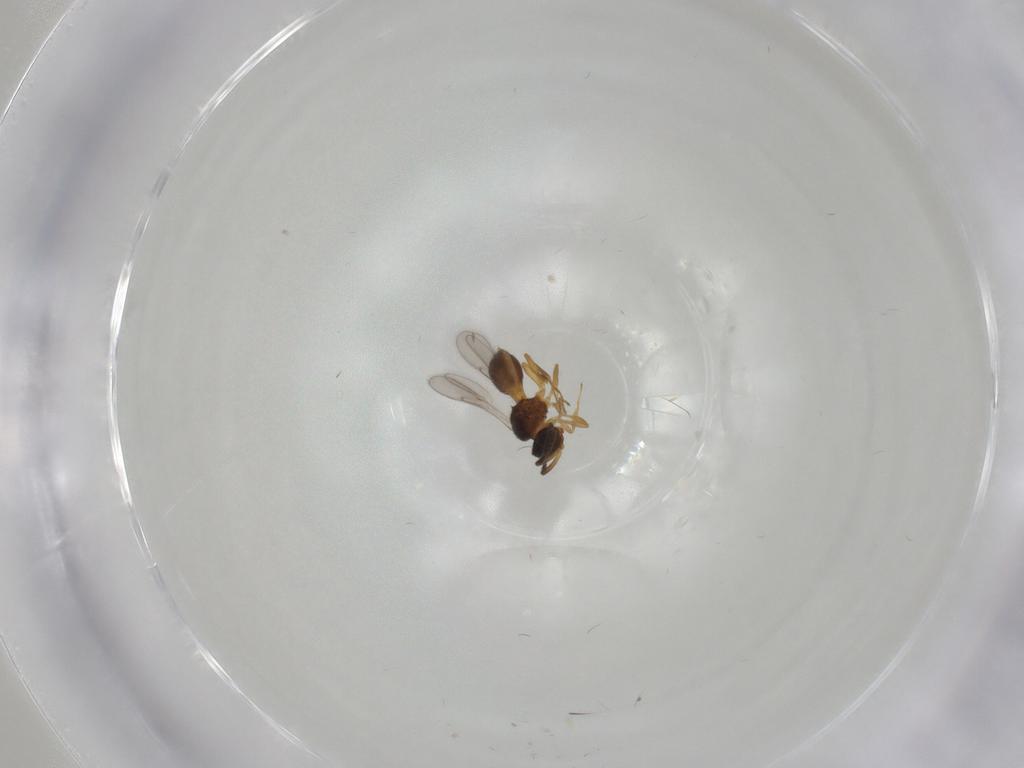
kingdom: Animalia
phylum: Arthropoda
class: Insecta
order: Hymenoptera
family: Scelionidae
